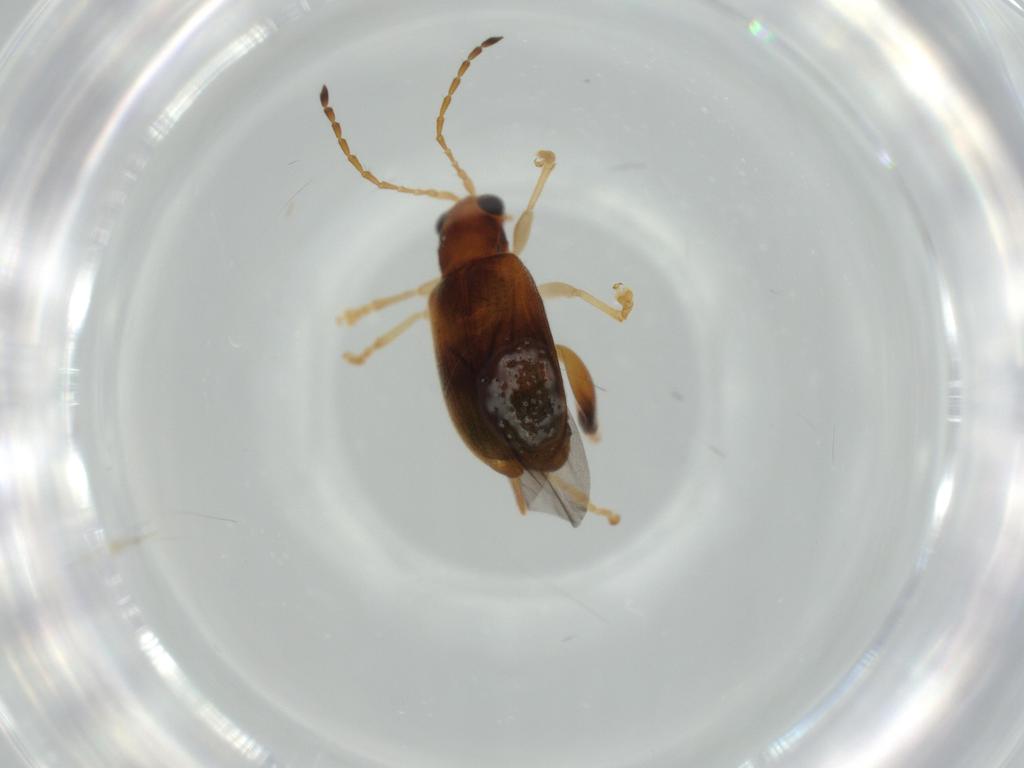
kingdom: Animalia
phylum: Arthropoda
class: Insecta
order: Coleoptera
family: Chrysomelidae
